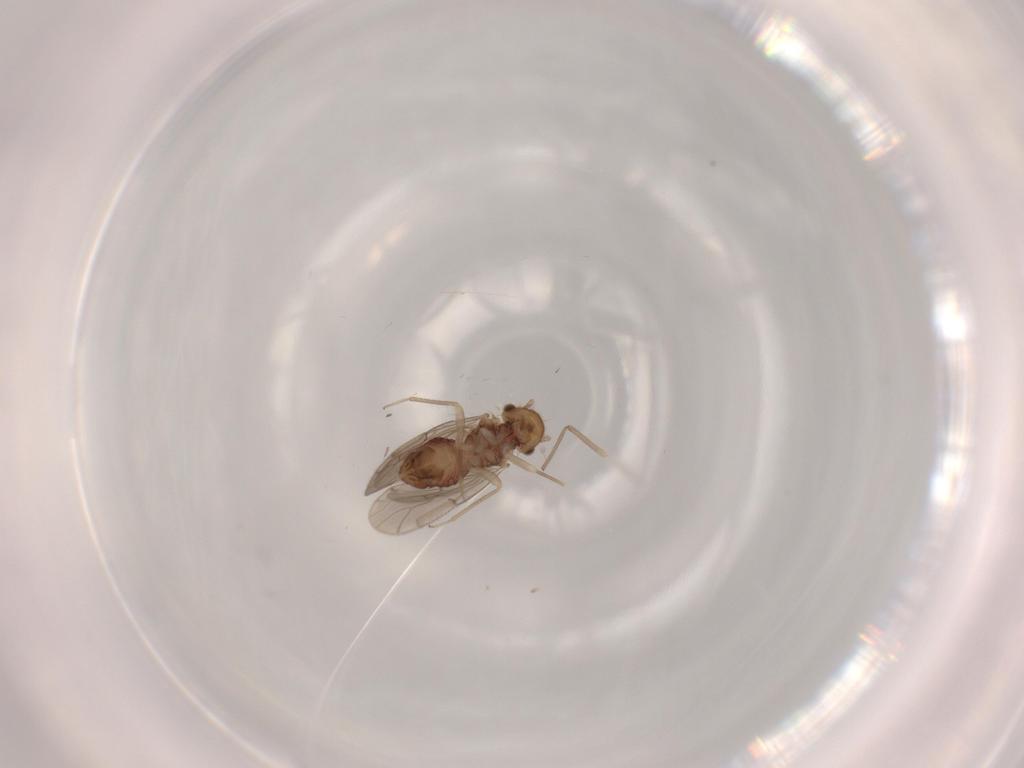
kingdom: Animalia
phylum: Arthropoda
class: Insecta
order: Psocodea
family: Ectopsocidae
